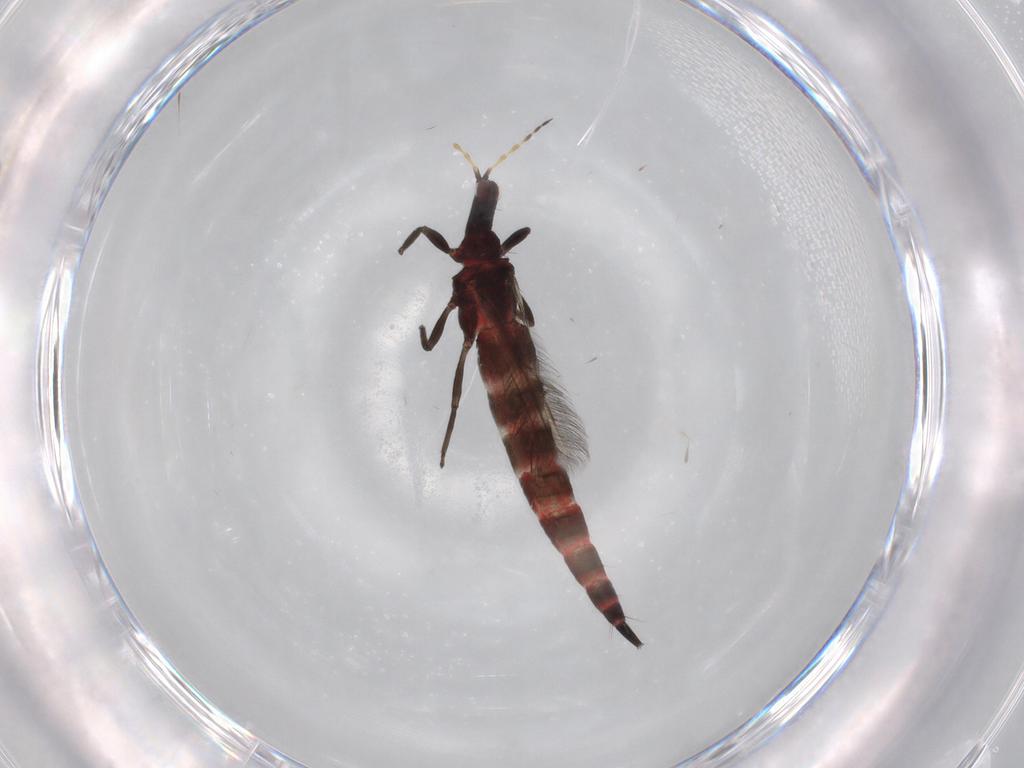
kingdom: Animalia
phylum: Arthropoda
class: Insecta
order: Thysanoptera
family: Phlaeothripidae
